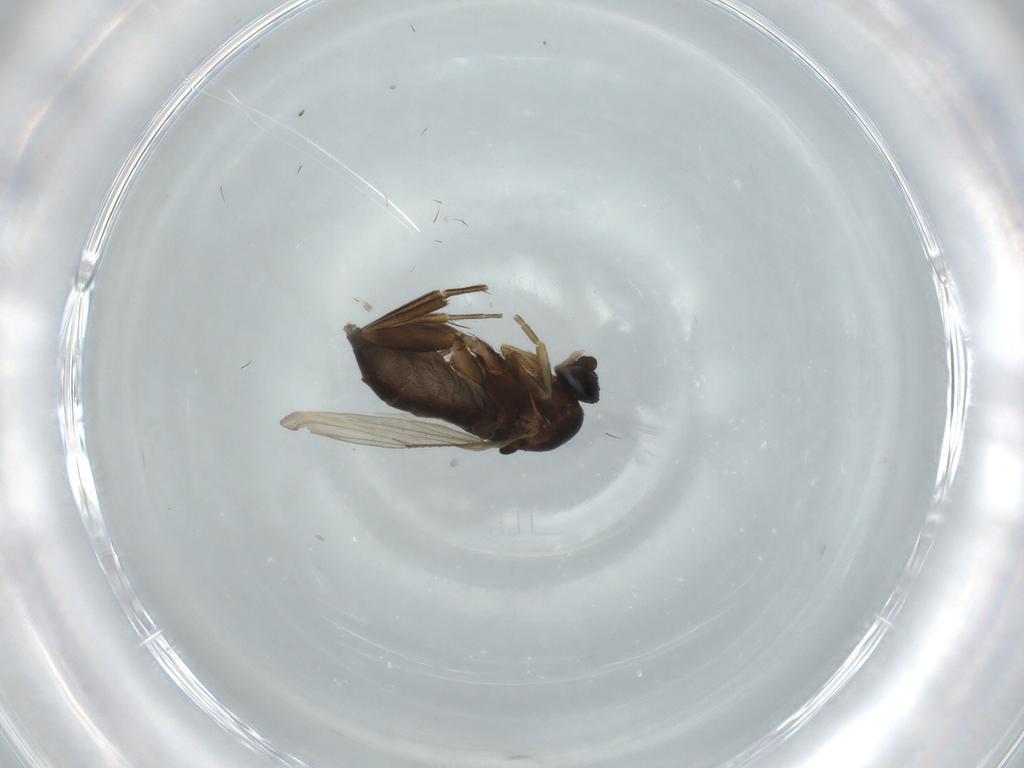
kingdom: Animalia
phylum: Arthropoda
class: Insecta
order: Diptera
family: Phoridae
